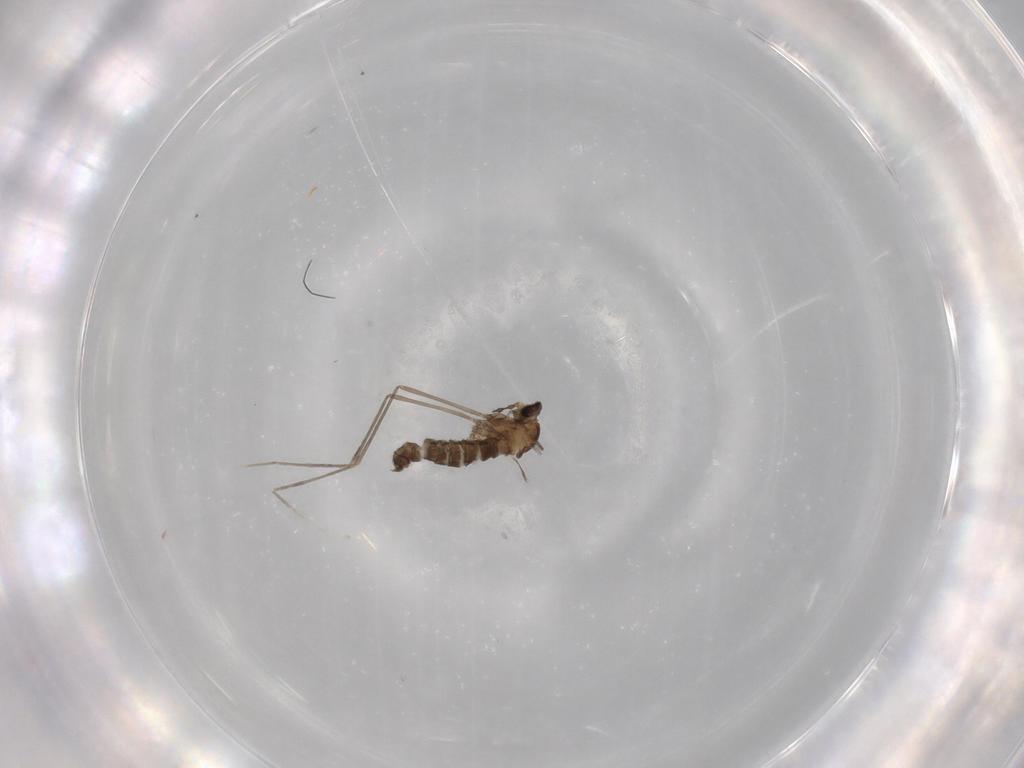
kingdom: Animalia
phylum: Arthropoda
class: Insecta
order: Diptera
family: Cecidomyiidae
